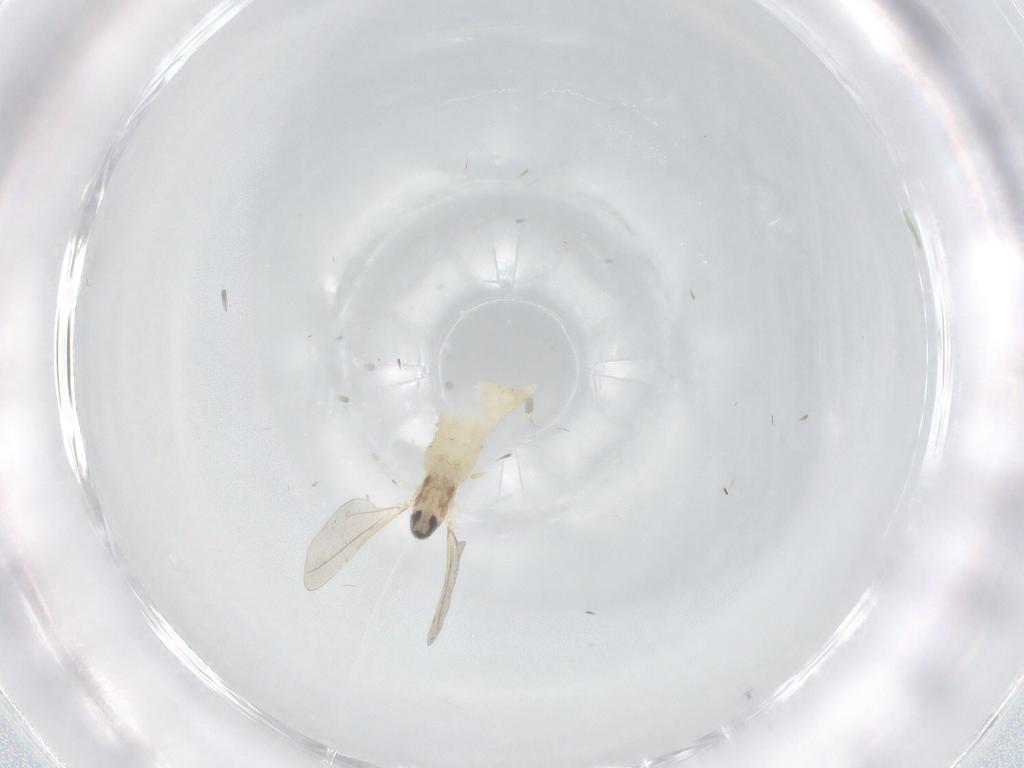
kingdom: Animalia
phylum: Arthropoda
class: Insecta
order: Diptera
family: Cecidomyiidae
